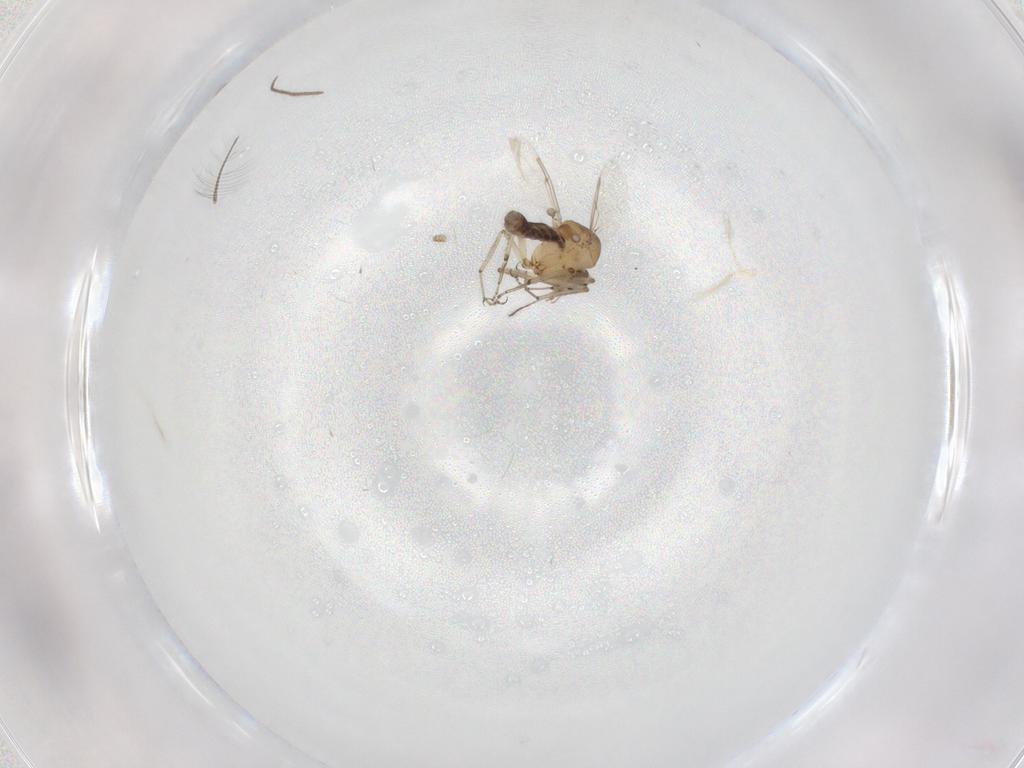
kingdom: Animalia
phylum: Arthropoda
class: Insecta
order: Diptera
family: Ceratopogonidae
